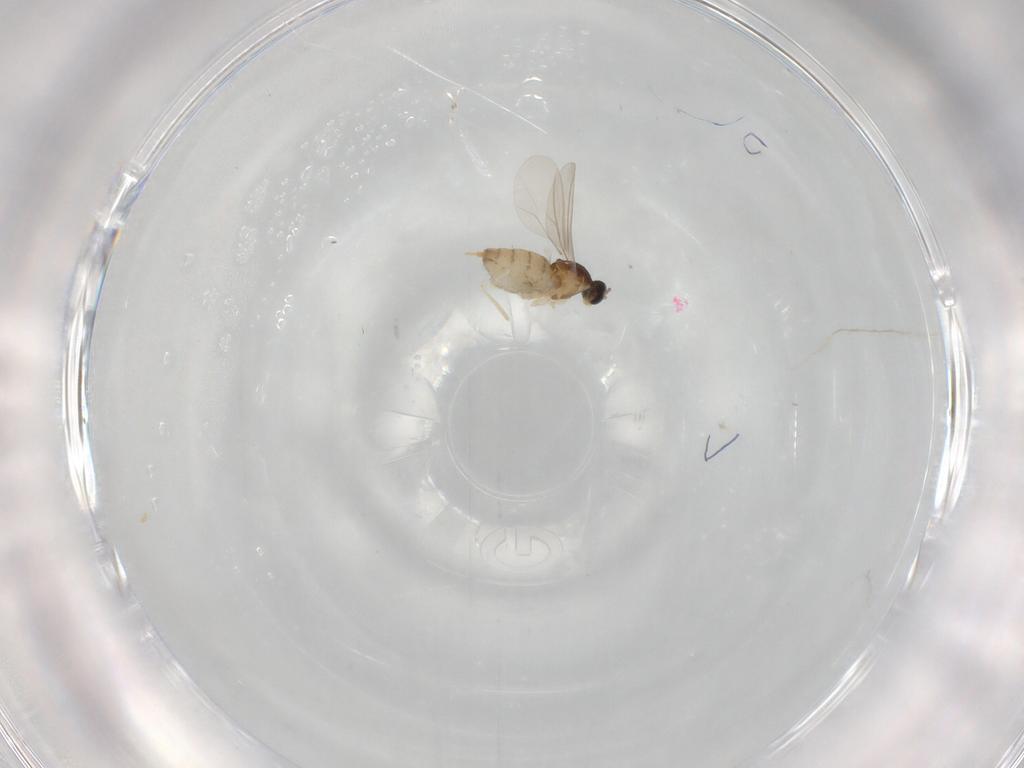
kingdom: Animalia
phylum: Arthropoda
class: Insecta
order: Diptera
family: Cecidomyiidae
